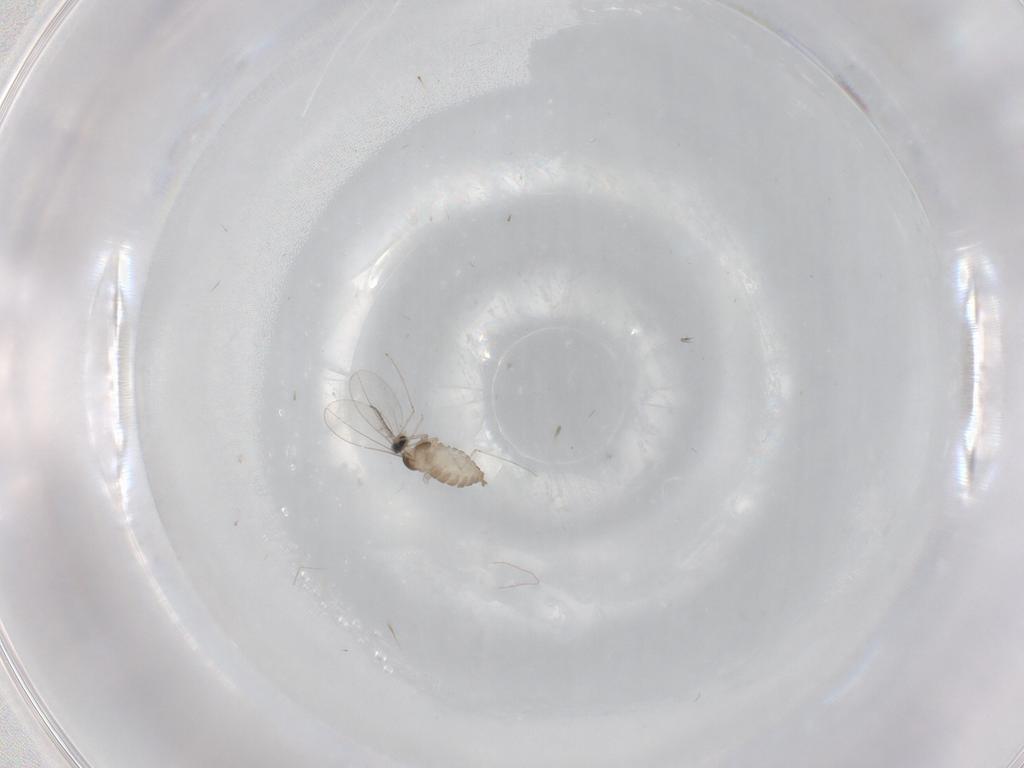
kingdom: Animalia
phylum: Arthropoda
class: Insecta
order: Diptera
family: Cecidomyiidae
